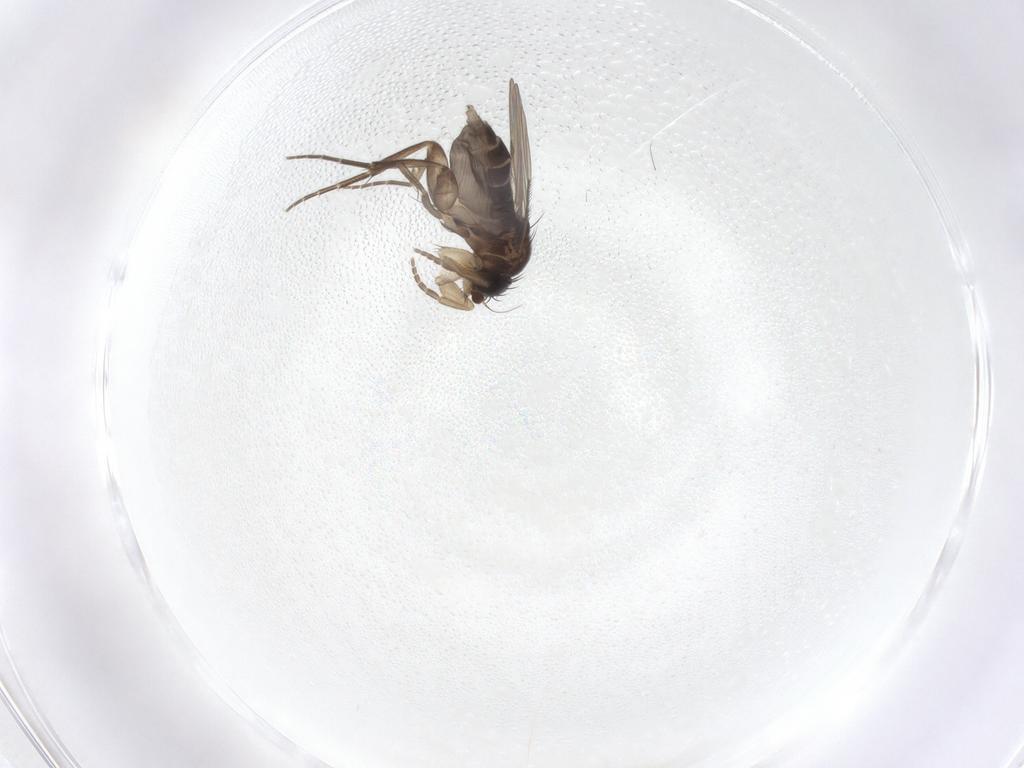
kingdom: Animalia
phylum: Arthropoda
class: Insecta
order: Diptera
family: Phoridae
